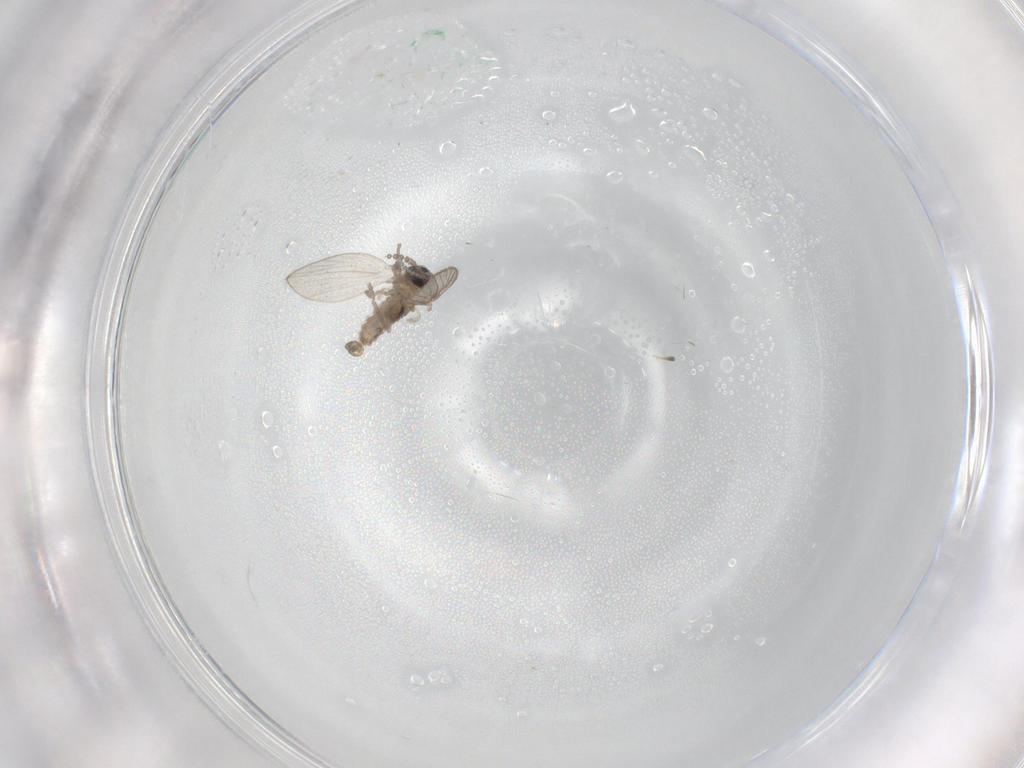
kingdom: Animalia
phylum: Arthropoda
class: Insecta
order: Diptera
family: Psychodidae
